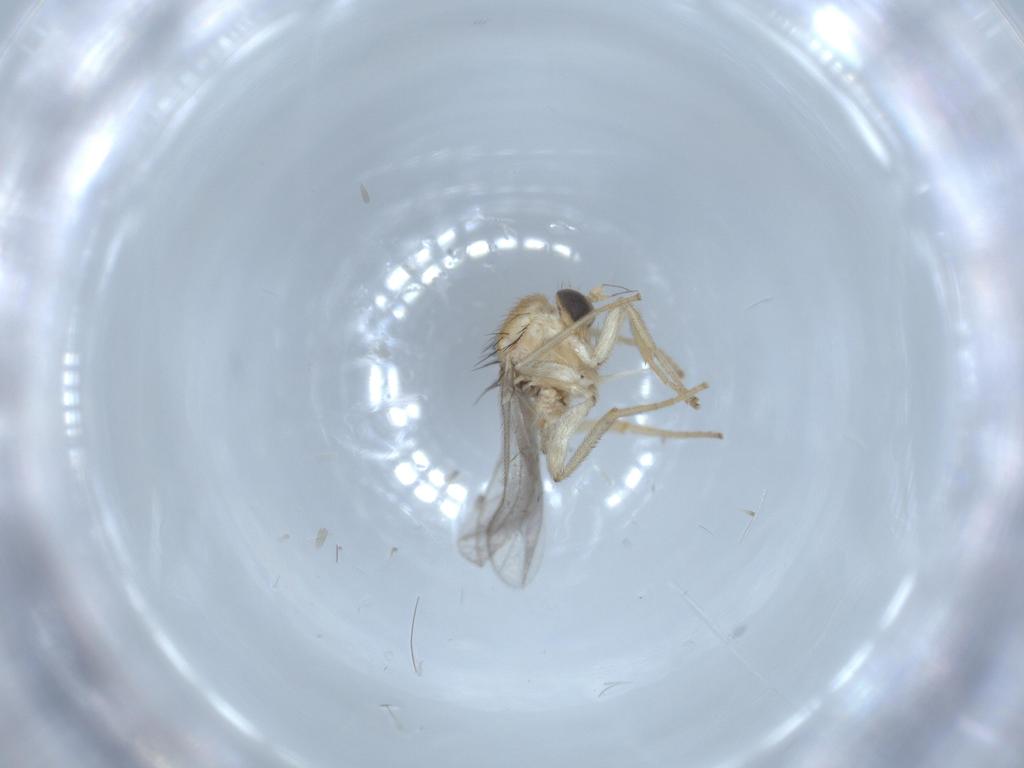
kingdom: Animalia
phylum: Arthropoda
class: Insecta
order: Diptera
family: Hybotidae
